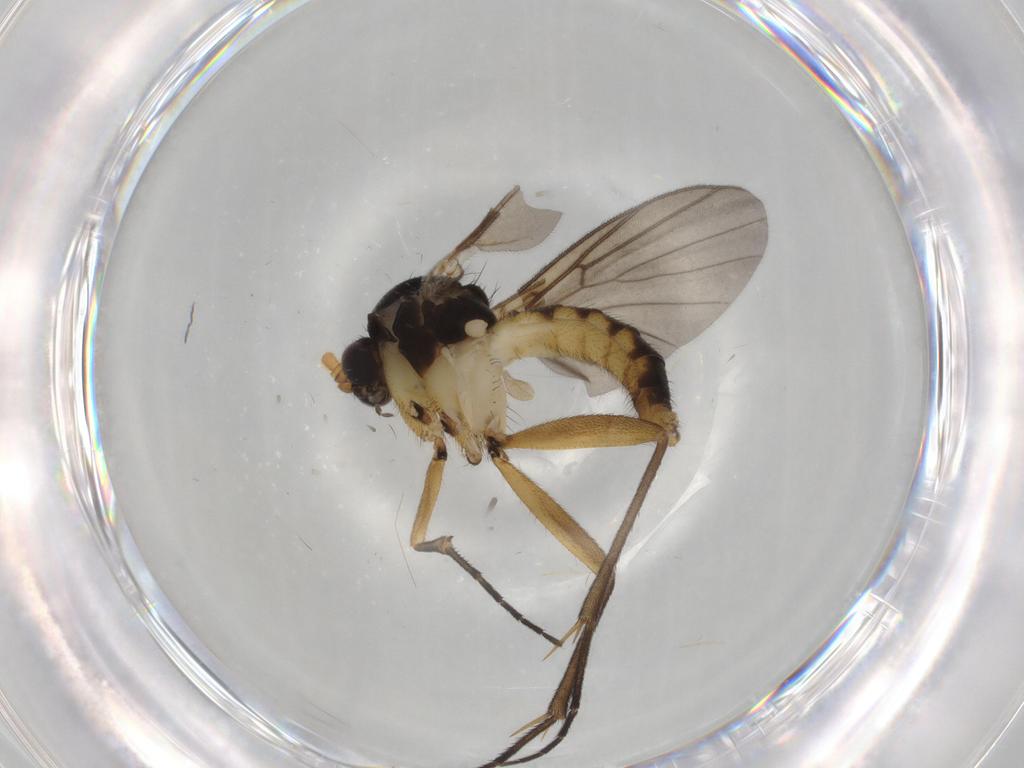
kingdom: Animalia
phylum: Arthropoda
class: Insecta
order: Diptera
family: Sciaridae
